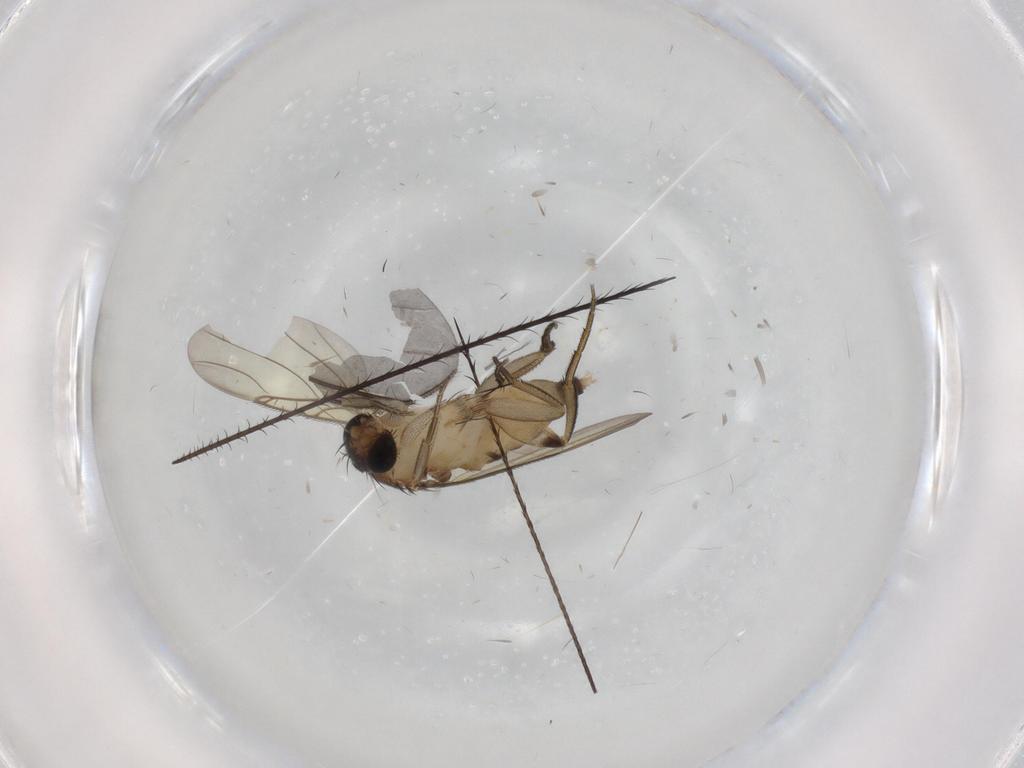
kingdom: Animalia
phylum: Arthropoda
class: Insecta
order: Diptera
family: Phoridae
